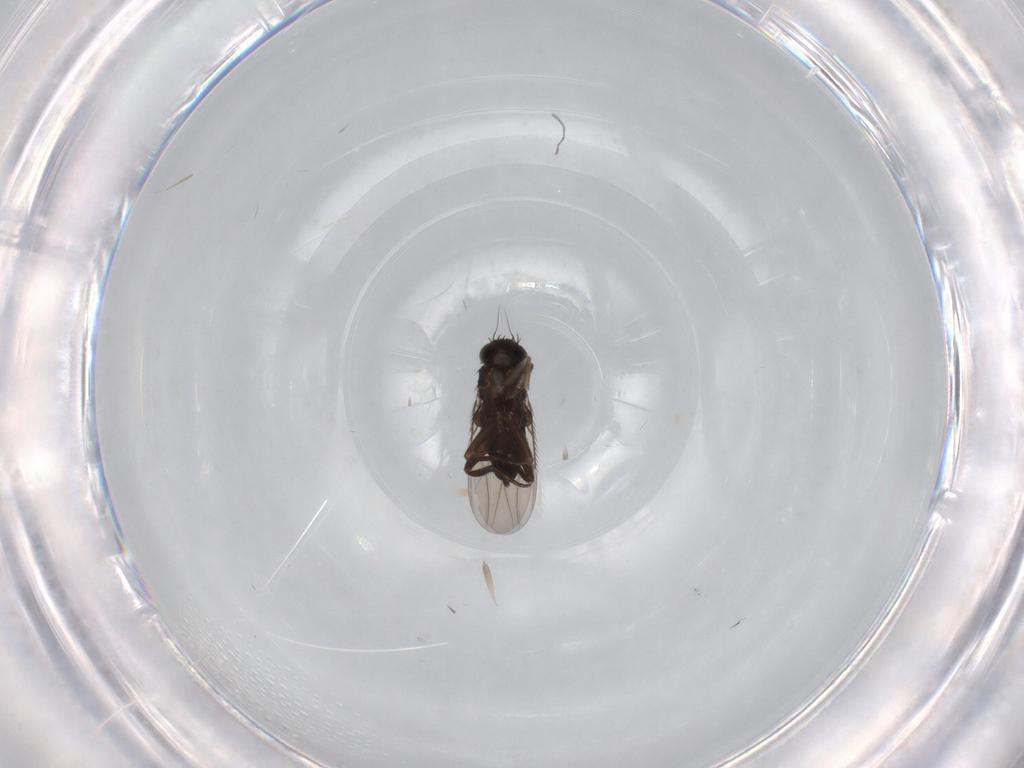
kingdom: Animalia
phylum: Arthropoda
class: Insecta
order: Diptera
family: Phoridae
